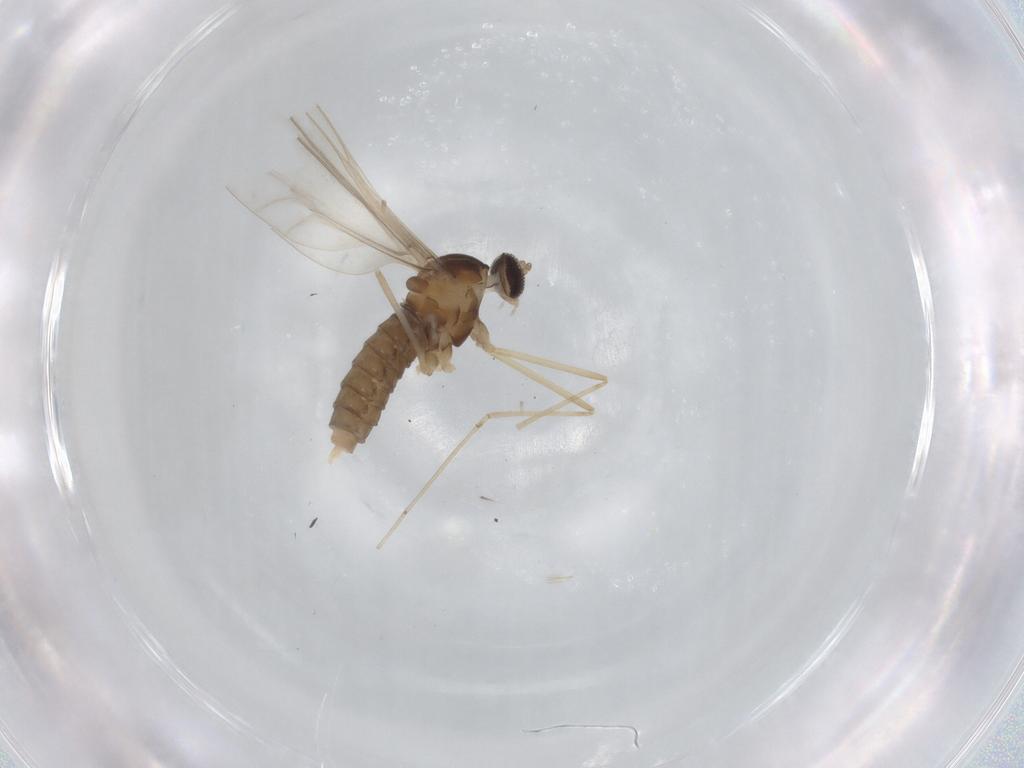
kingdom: Animalia
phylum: Arthropoda
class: Insecta
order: Diptera
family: Cecidomyiidae
